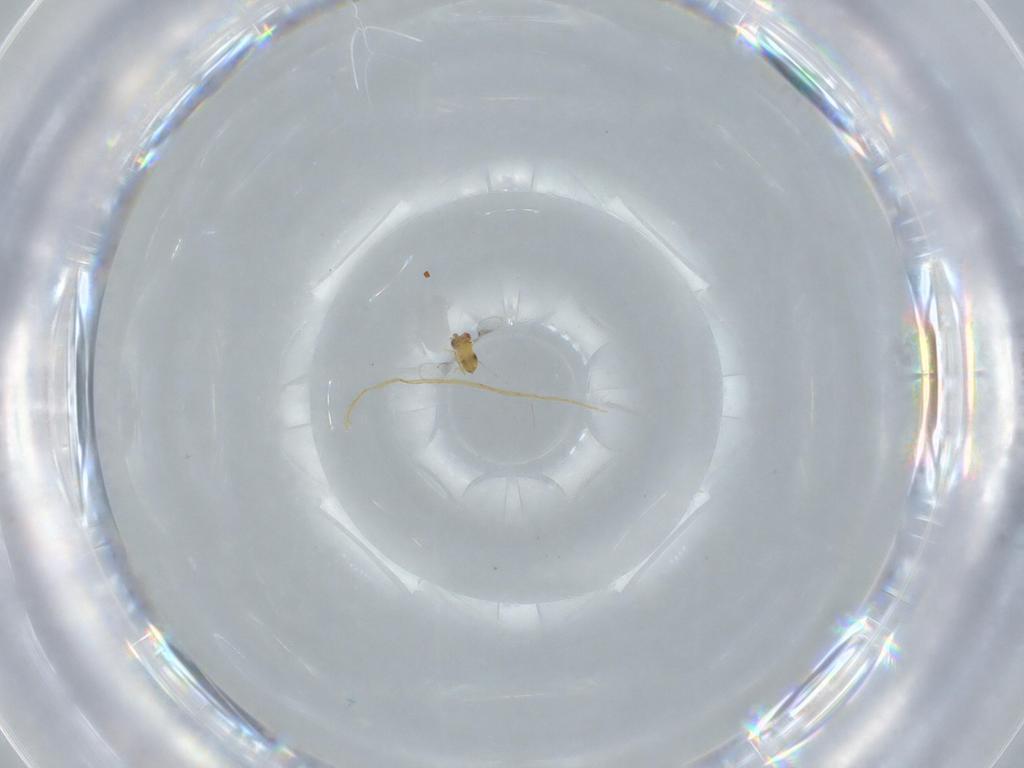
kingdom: Animalia
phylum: Arthropoda
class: Insecta
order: Hymenoptera
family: Trichogrammatidae
